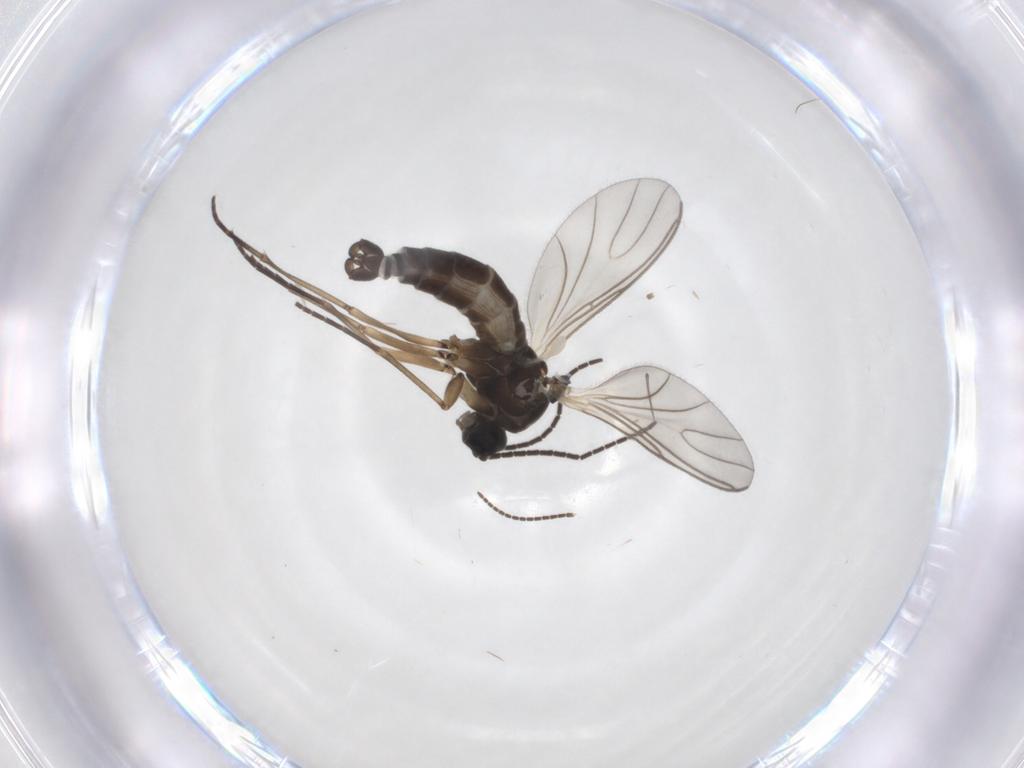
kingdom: Animalia
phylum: Arthropoda
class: Insecta
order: Diptera
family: Sciaridae
